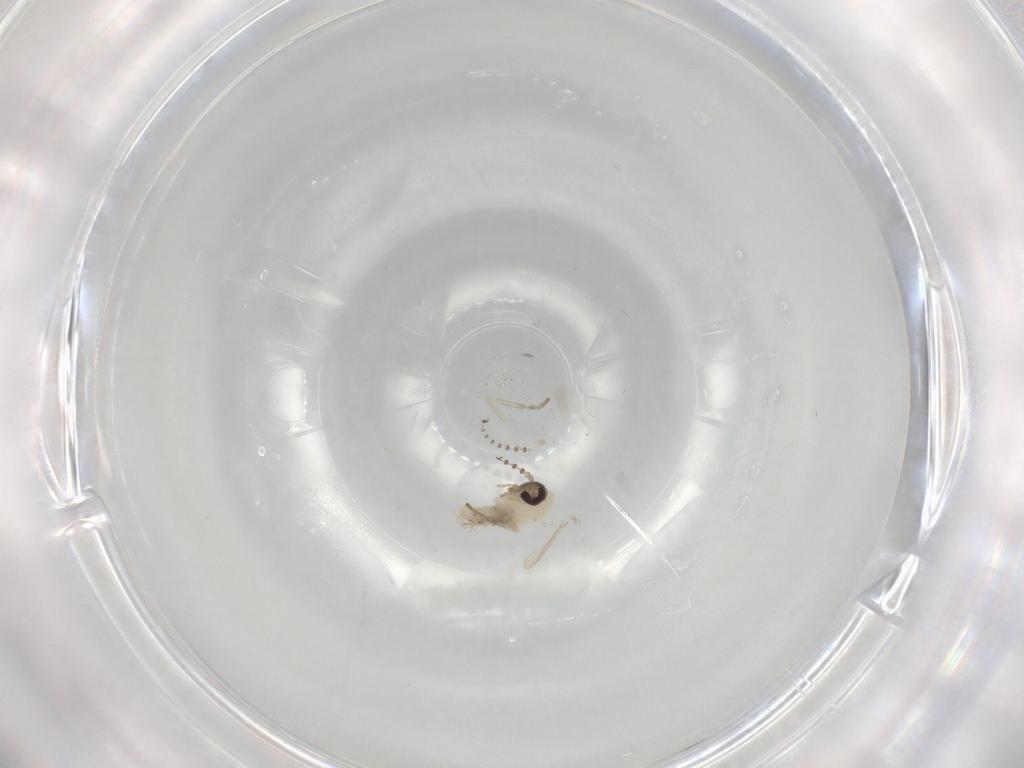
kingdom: Animalia
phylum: Arthropoda
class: Insecta
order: Diptera
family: Psychodidae
